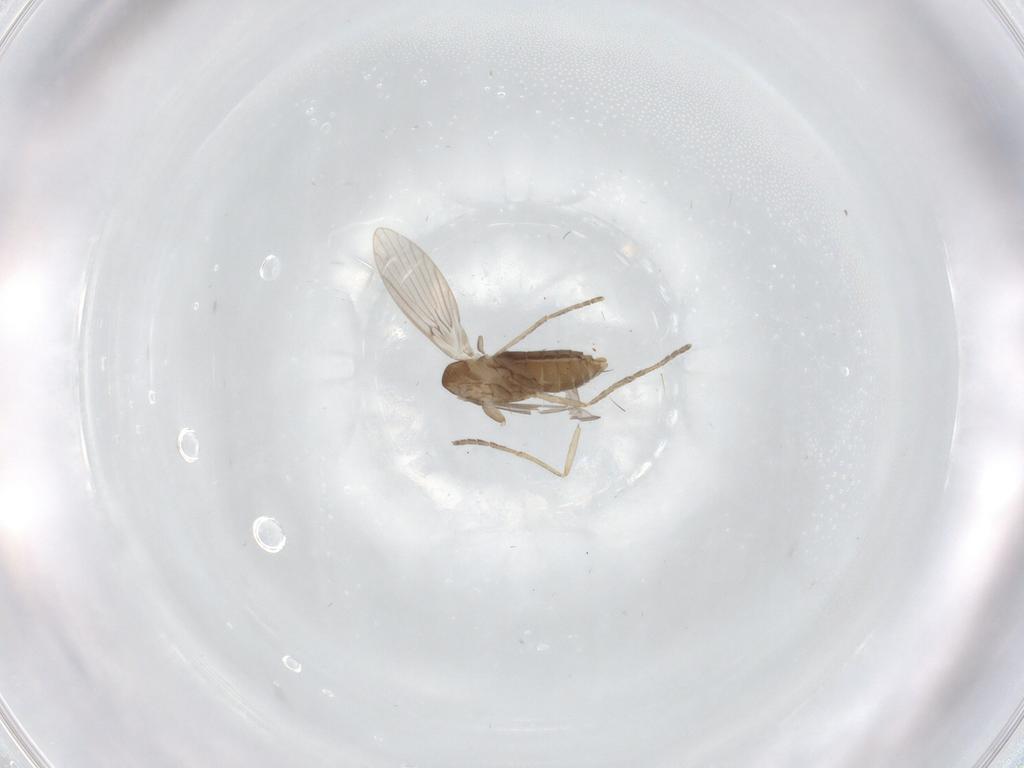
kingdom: Animalia
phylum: Arthropoda
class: Insecta
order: Diptera
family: Phoridae
